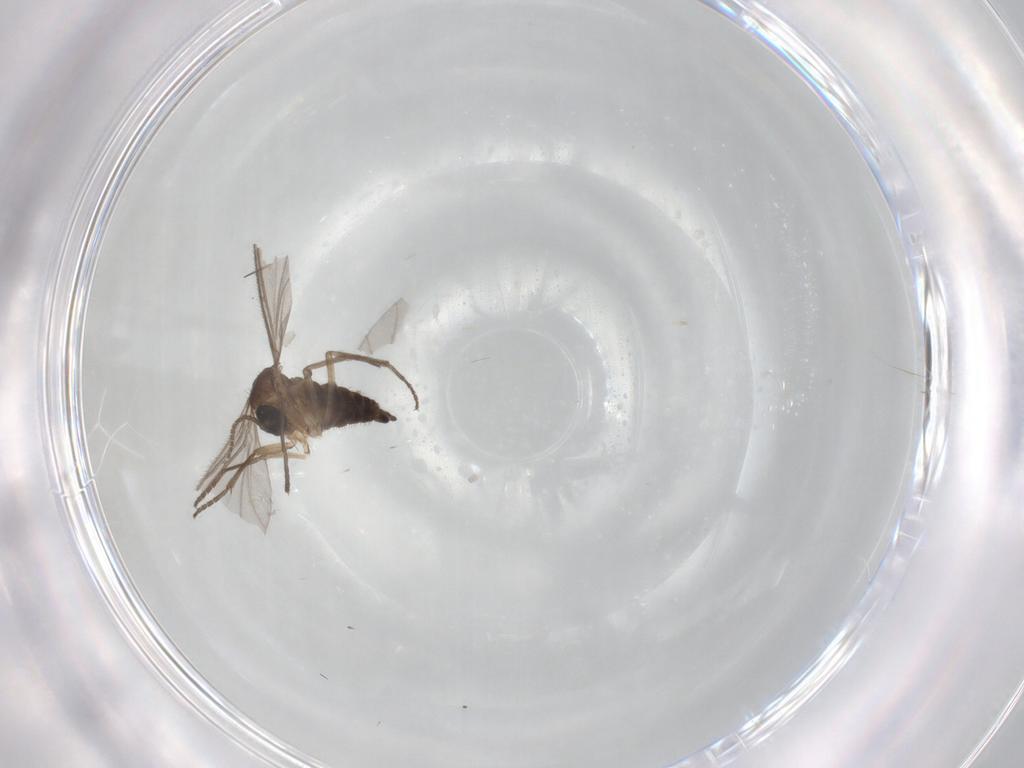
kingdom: Animalia
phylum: Arthropoda
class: Insecta
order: Diptera
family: Sciaridae
